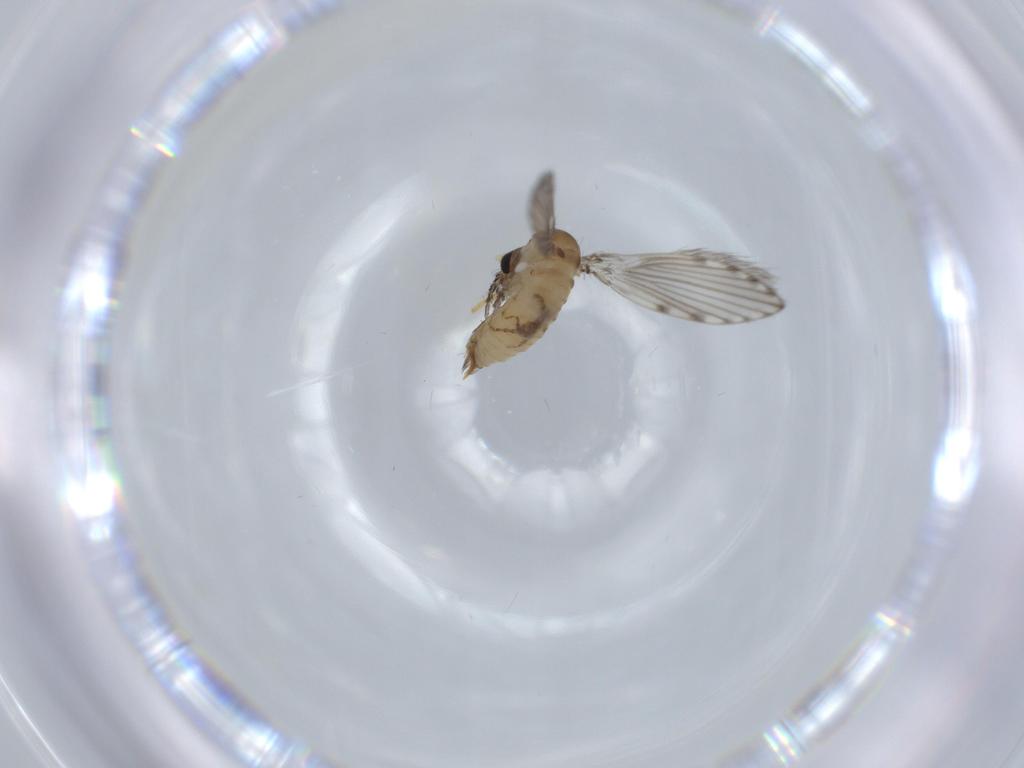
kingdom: Animalia
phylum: Arthropoda
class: Insecta
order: Diptera
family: Psychodidae
